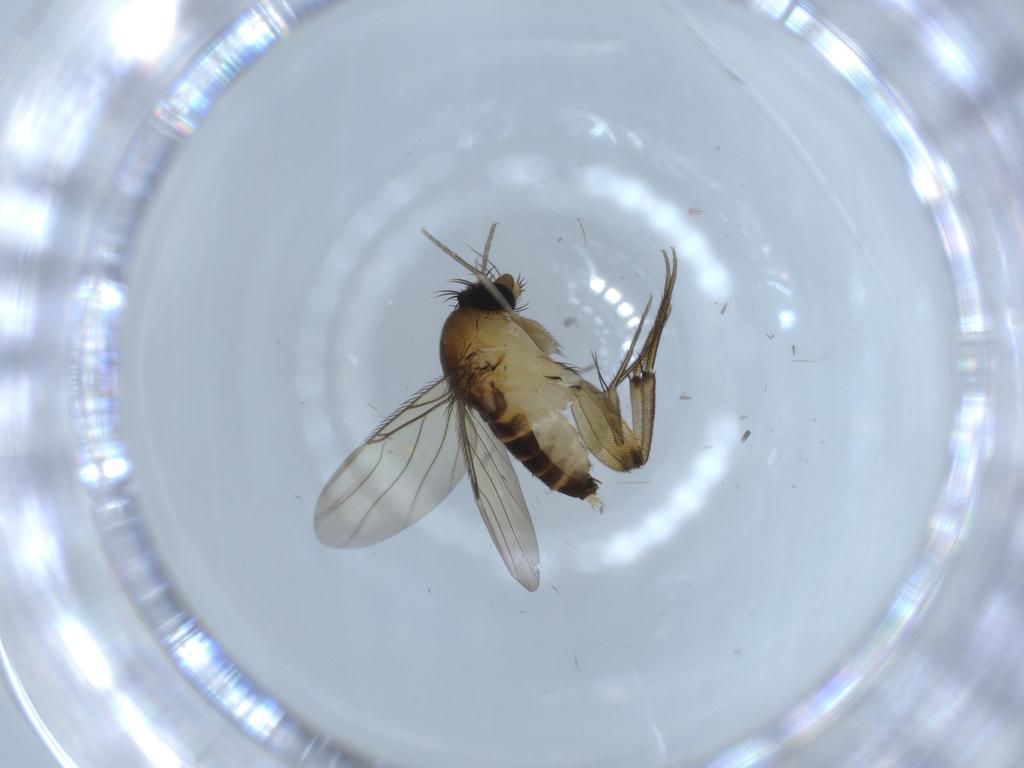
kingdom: Animalia
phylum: Arthropoda
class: Insecta
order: Diptera
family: Phoridae
